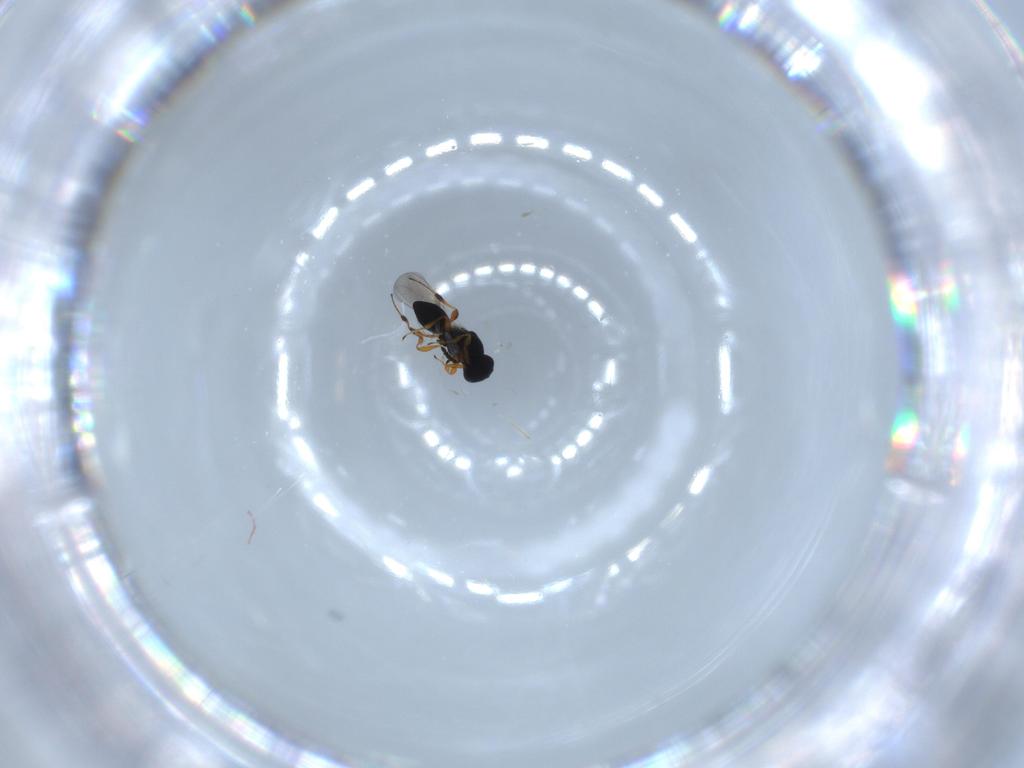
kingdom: Animalia
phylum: Arthropoda
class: Insecta
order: Hymenoptera
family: Platygastridae
